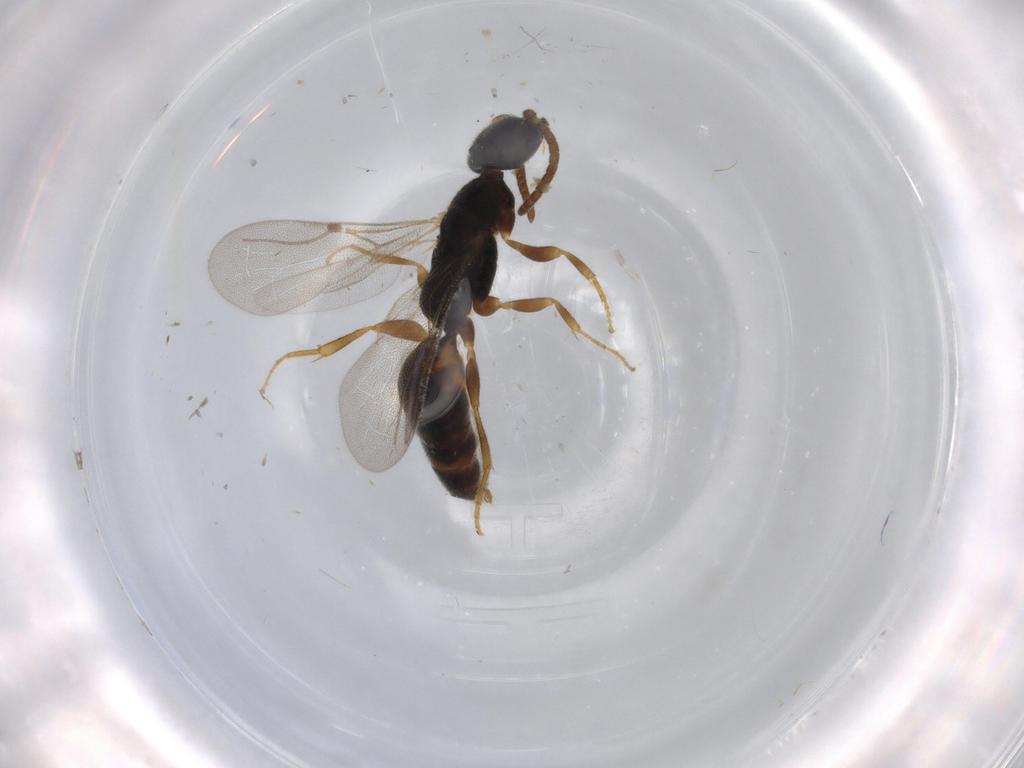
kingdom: Animalia
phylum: Arthropoda
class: Insecta
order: Hymenoptera
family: Bethylidae
